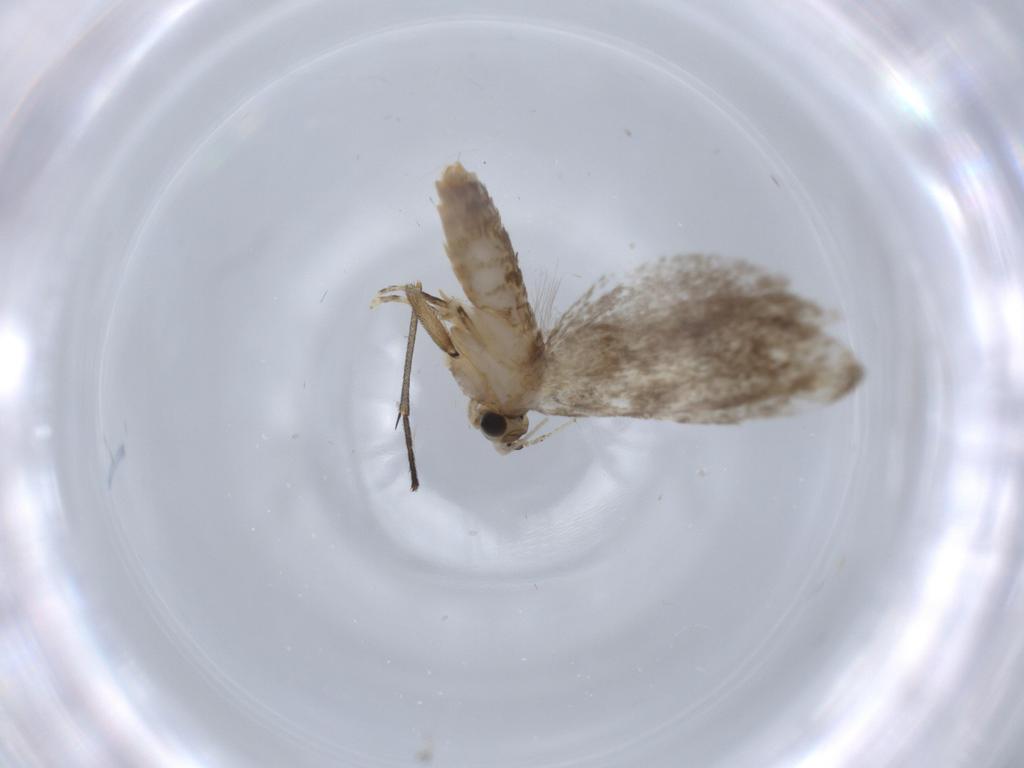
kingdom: Animalia
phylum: Arthropoda
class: Insecta
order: Lepidoptera
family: Tineidae
